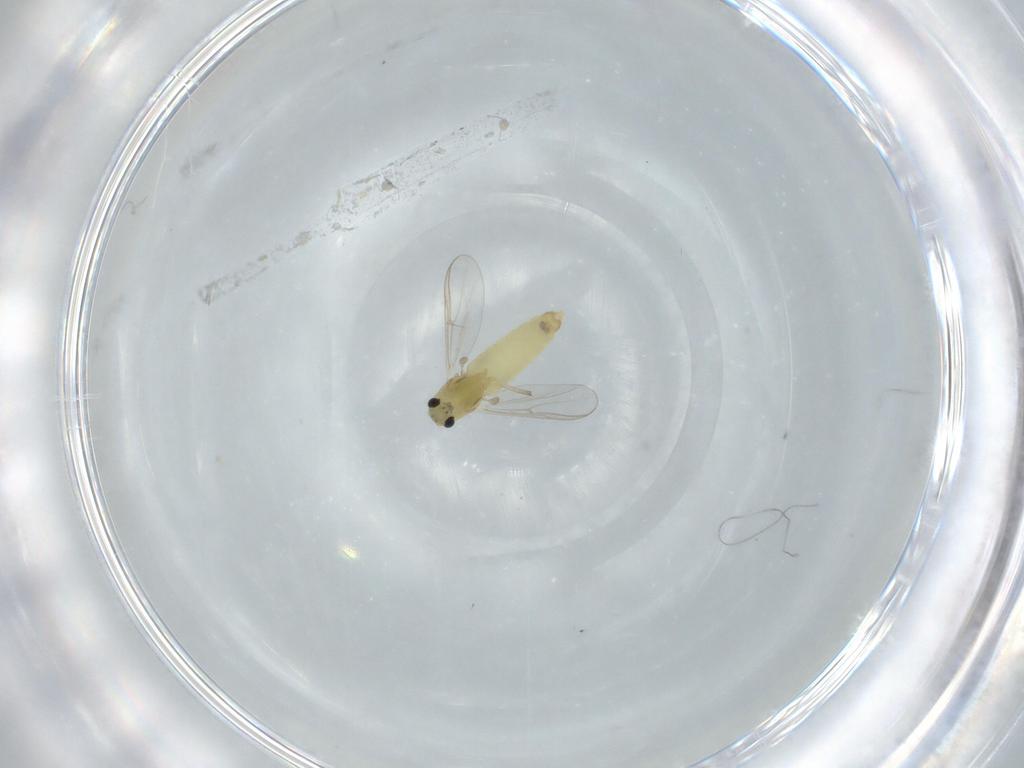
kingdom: Animalia
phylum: Arthropoda
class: Insecta
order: Diptera
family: Chironomidae
